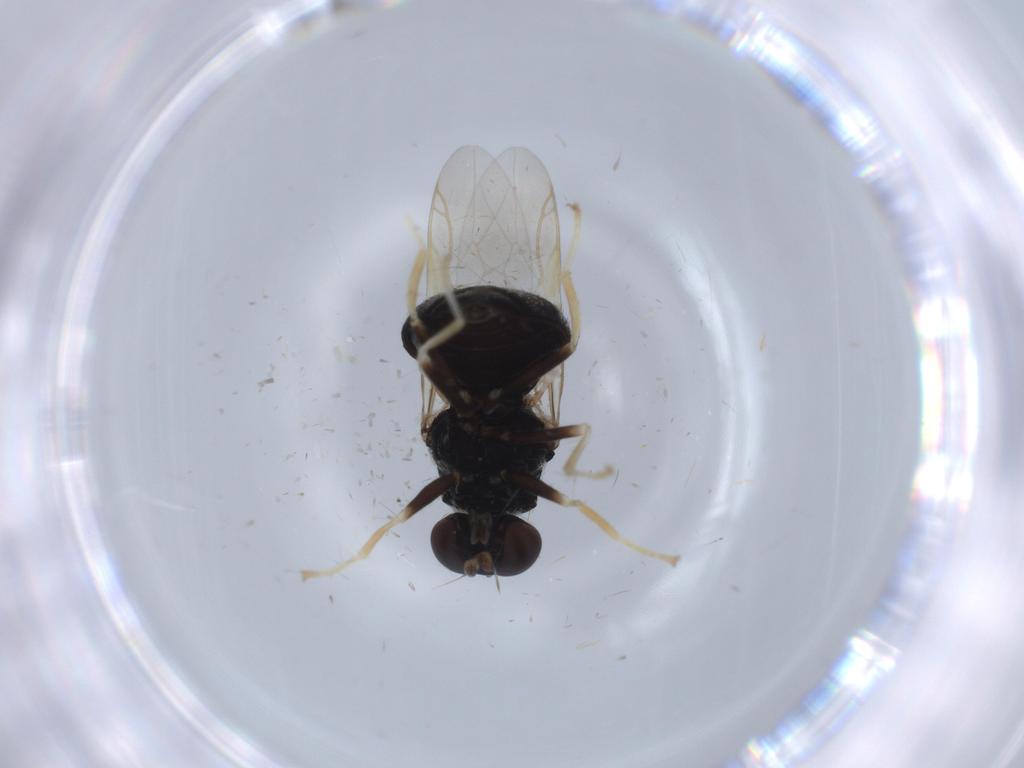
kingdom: Animalia
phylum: Arthropoda
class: Insecta
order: Diptera
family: Stratiomyidae
